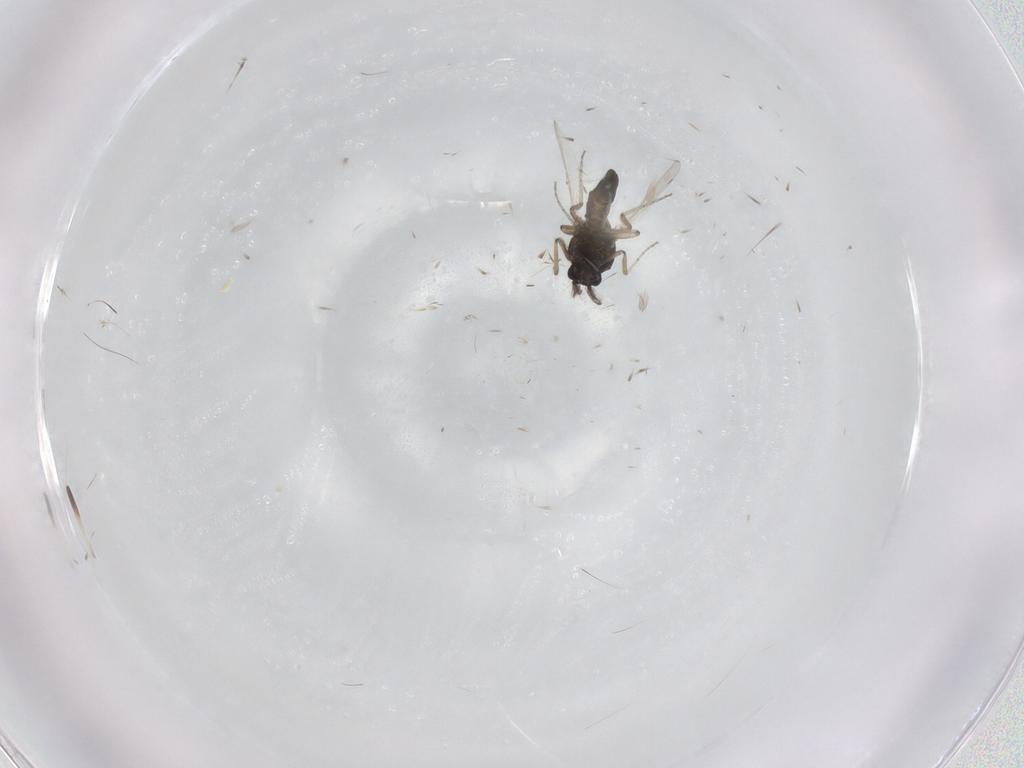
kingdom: Animalia
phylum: Arthropoda
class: Insecta
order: Diptera
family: Ceratopogonidae
